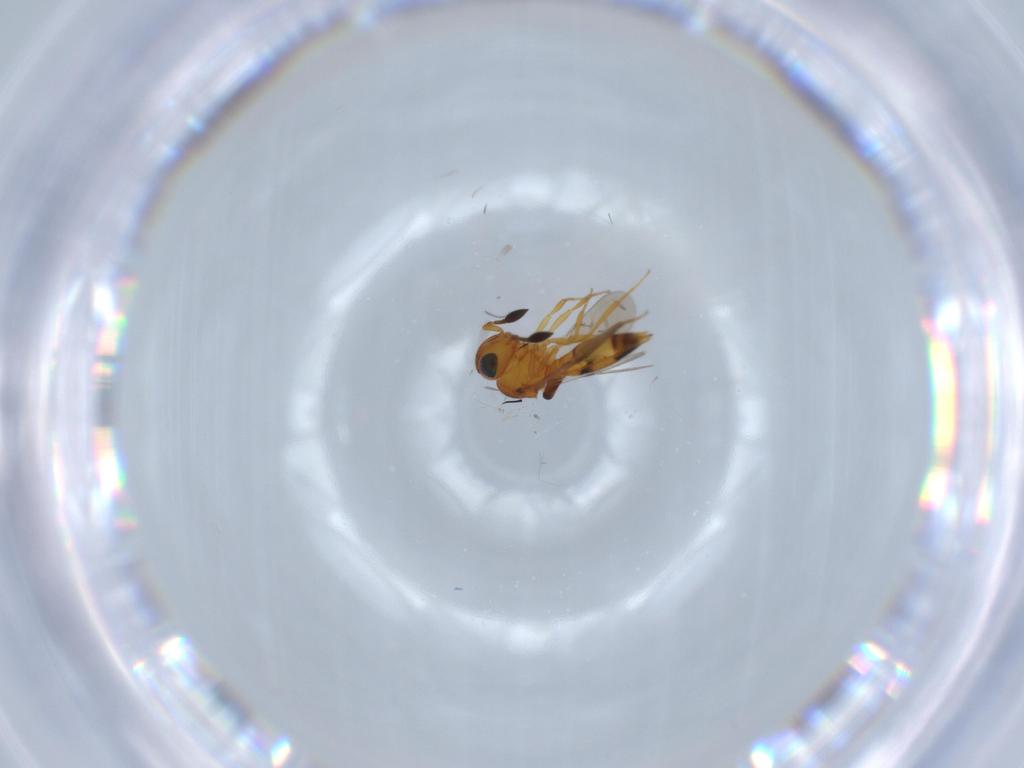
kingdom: Animalia
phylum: Arthropoda
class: Insecta
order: Hymenoptera
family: Scelionidae
